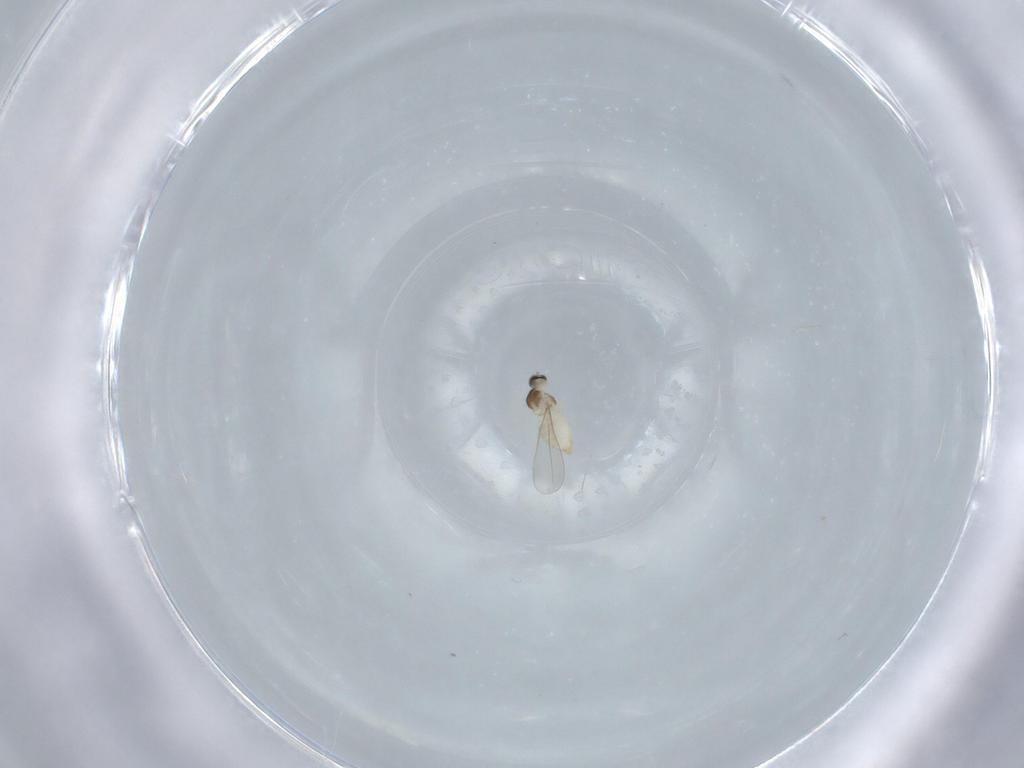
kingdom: Animalia
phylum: Arthropoda
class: Insecta
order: Diptera
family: Cecidomyiidae
